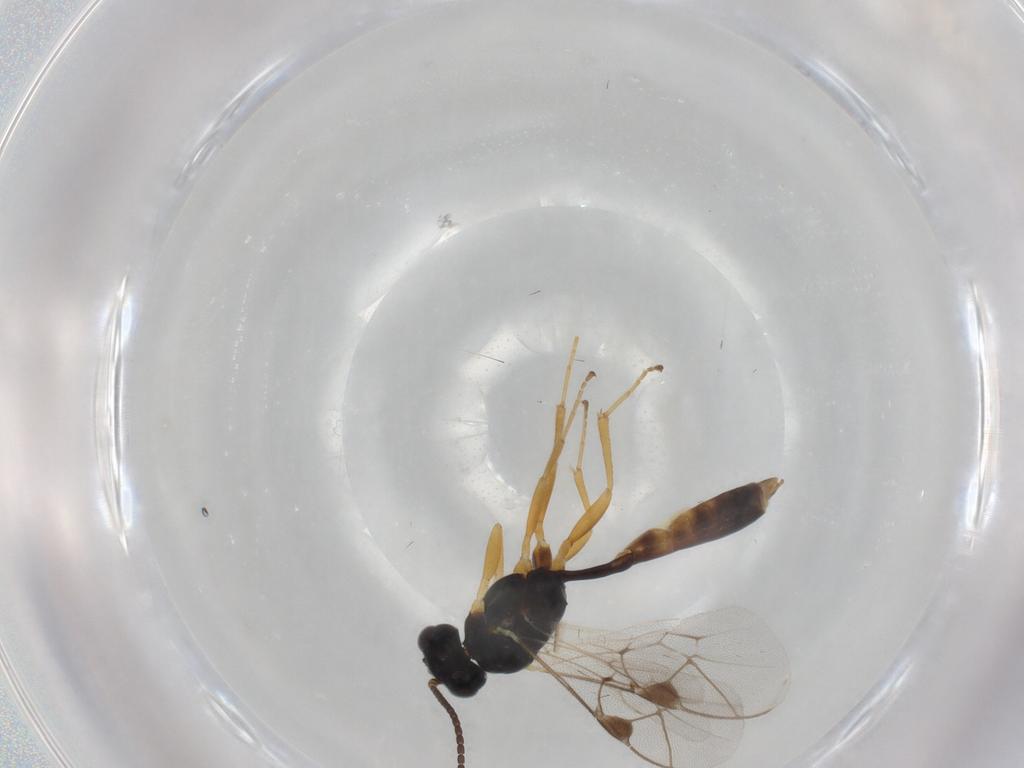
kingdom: Animalia
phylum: Arthropoda
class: Insecta
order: Hymenoptera
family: Ichneumonidae
